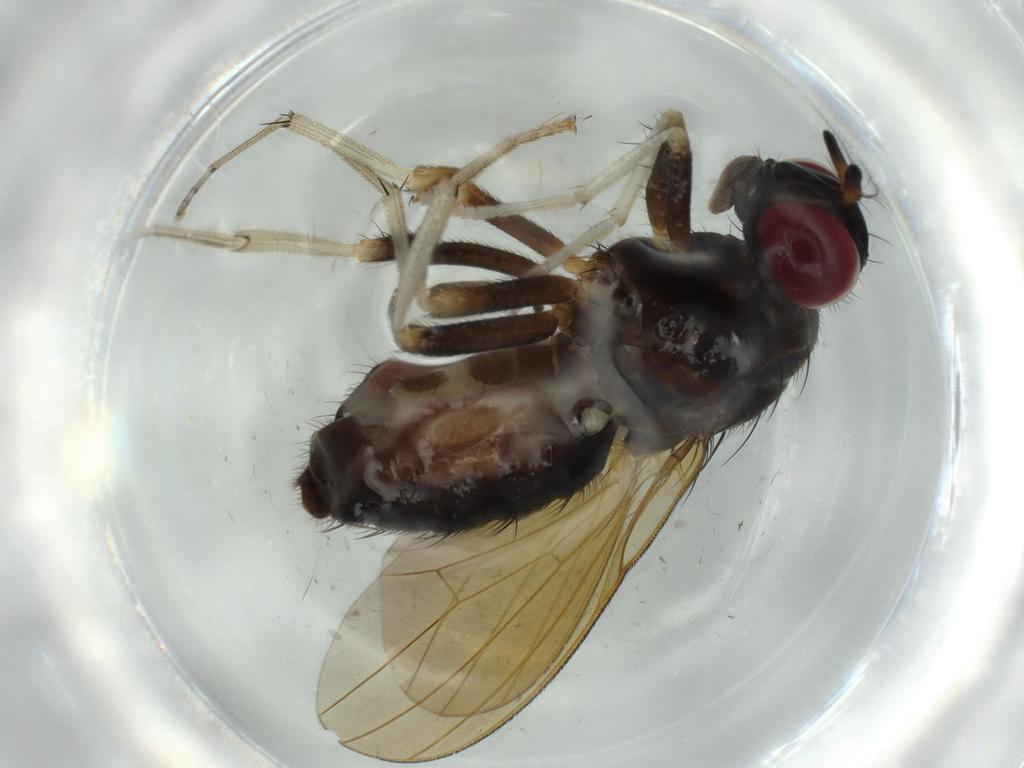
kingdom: Animalia
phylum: Arthropoda
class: Insecta
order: Diptera
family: Phoridae
